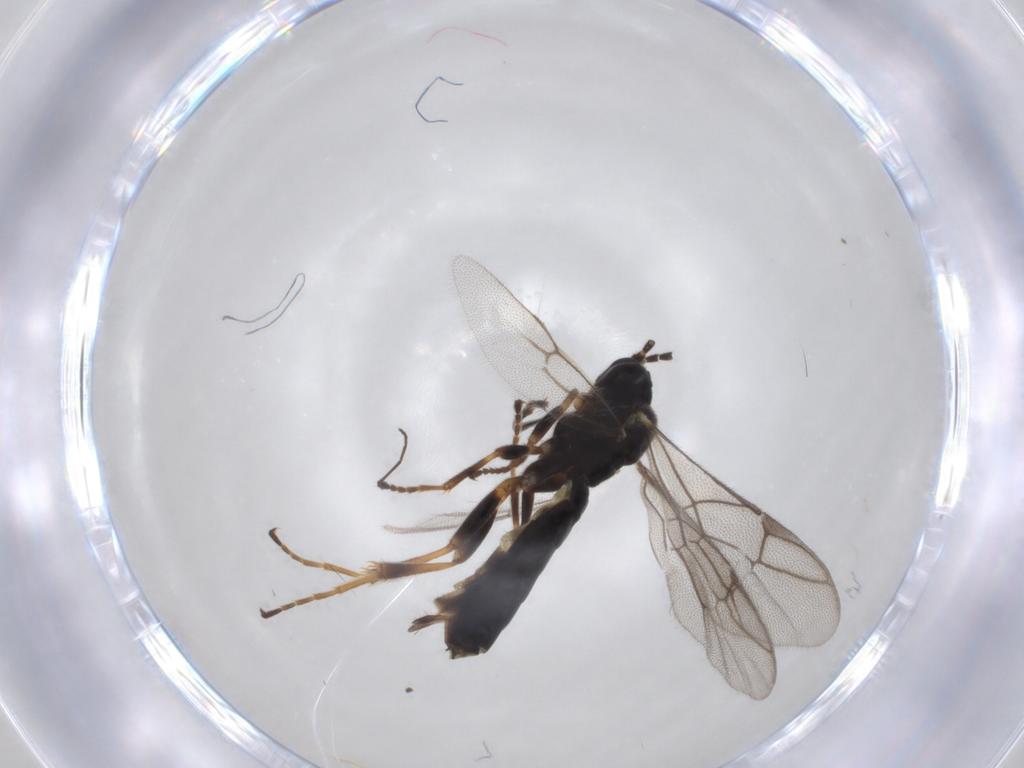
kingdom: Animalia
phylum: Arthropoda
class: Insecta
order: Hymenoptera
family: Ichneumonidae
